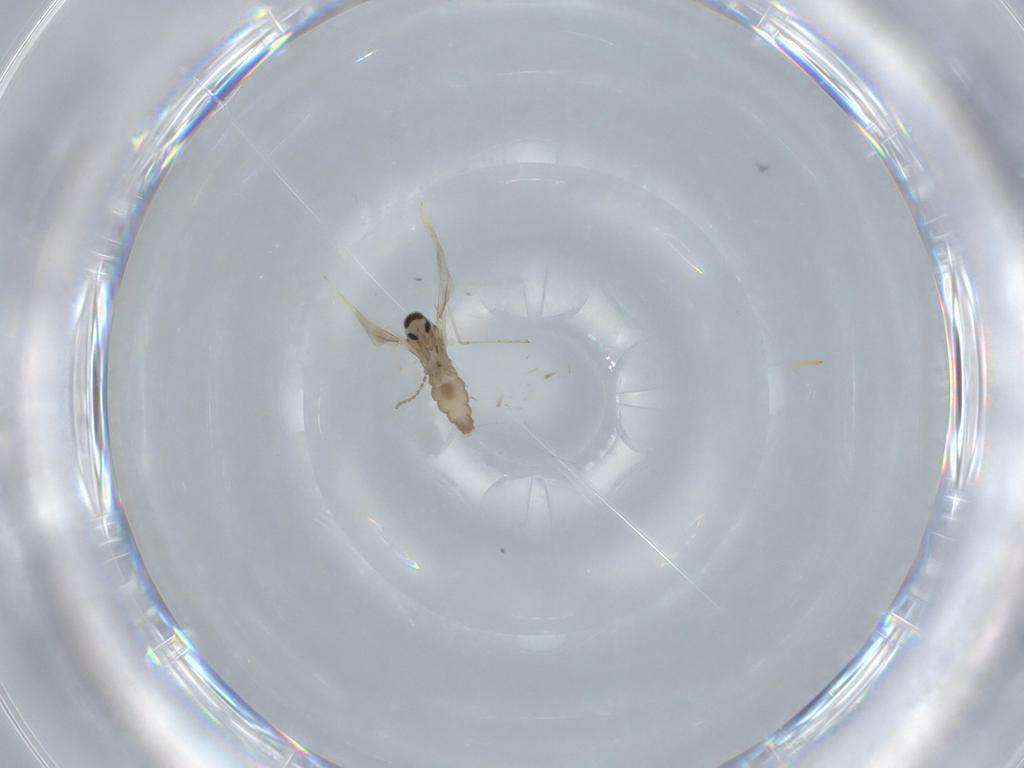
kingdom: Animalia
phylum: Arthropoda
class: Insecta
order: Diptera
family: Cecidomyiidae
